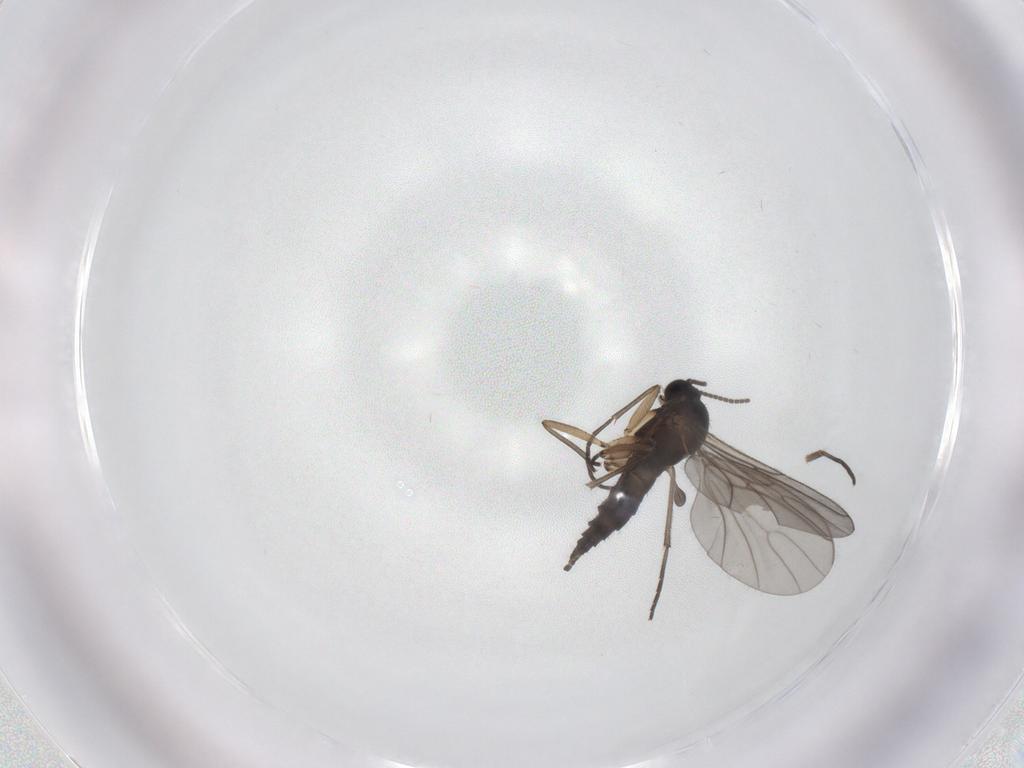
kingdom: Animalia
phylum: Arthropoda
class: Insecta
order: Diptera
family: Sciaridae
